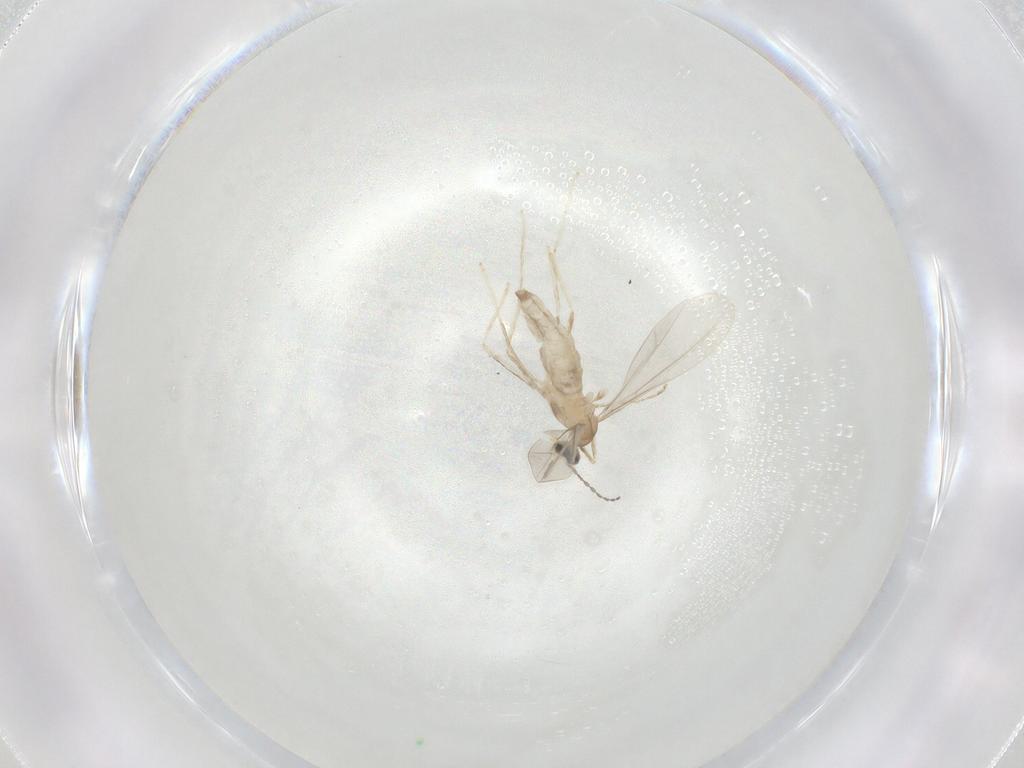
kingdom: Animalia
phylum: Arthropoda
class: Insecta
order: Diptera
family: Cecidomyiidae
